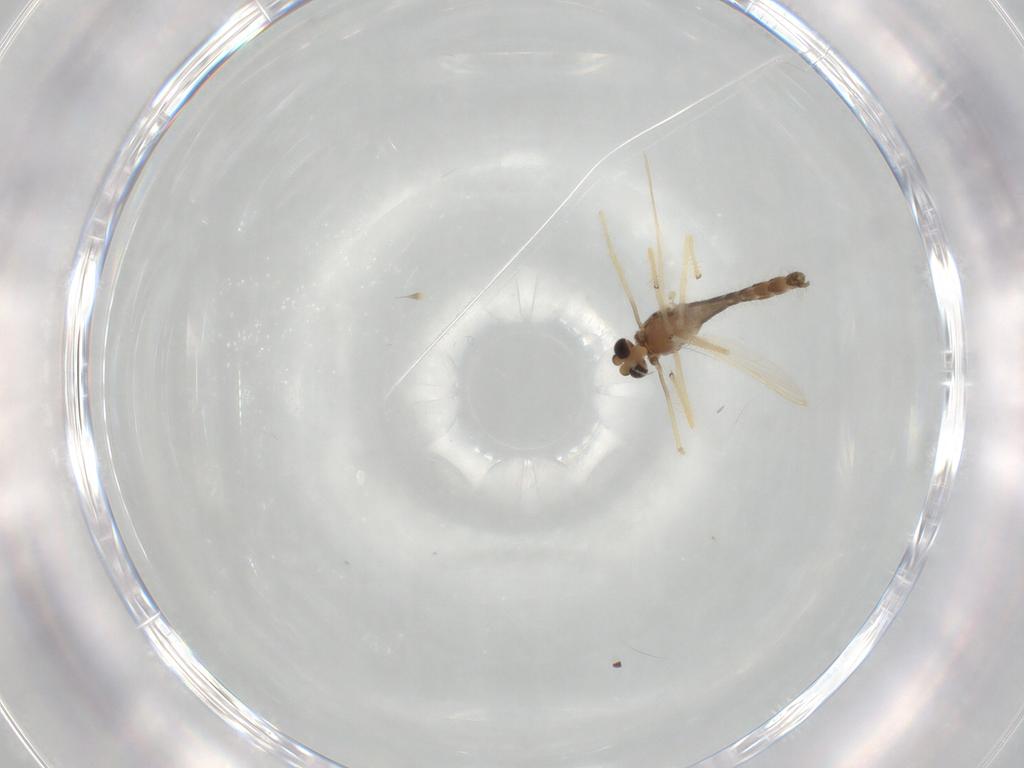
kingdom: Animalia
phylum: Arthropoda
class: Insecta
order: Diptera
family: Chironomidae
